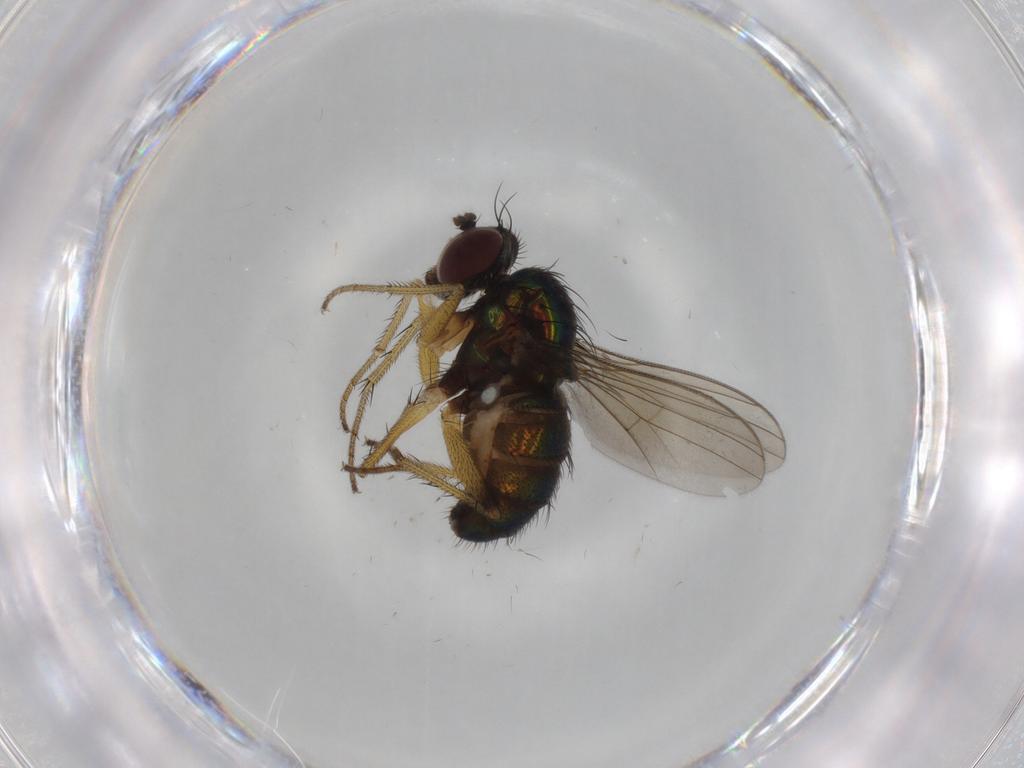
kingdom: Animalia
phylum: Arthropoda
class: Insecta
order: Diptera
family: Dolichopodidae
